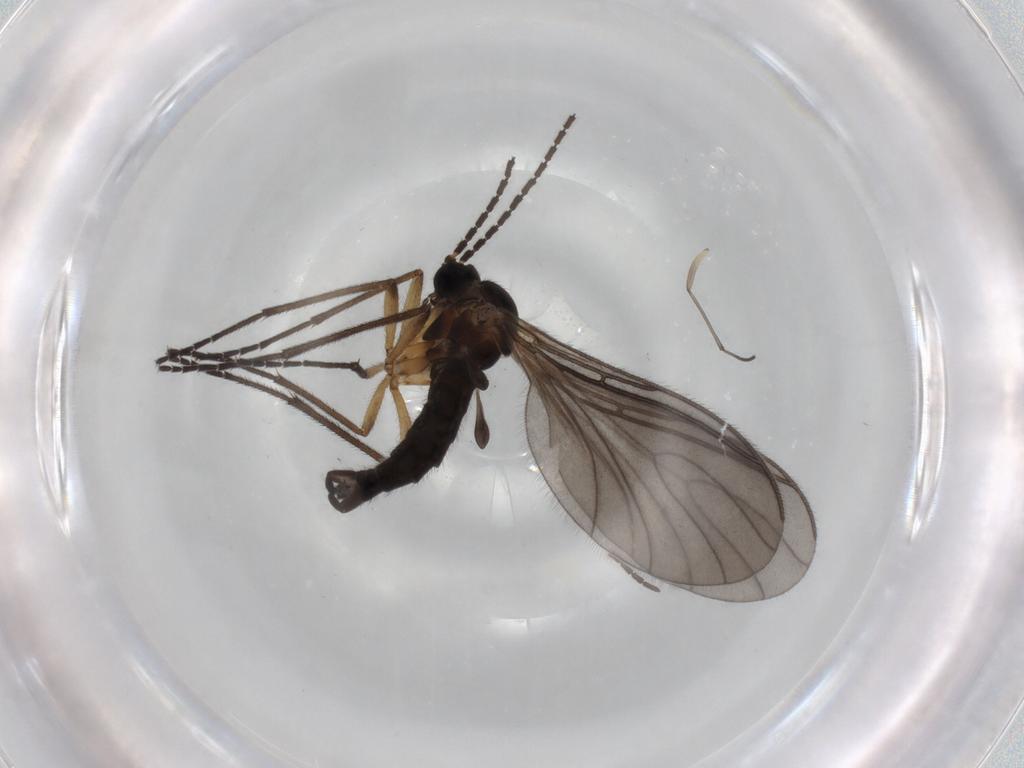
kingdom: Animalia
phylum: Arthropoda
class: Insecta
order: Diptera
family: Sciaridae
